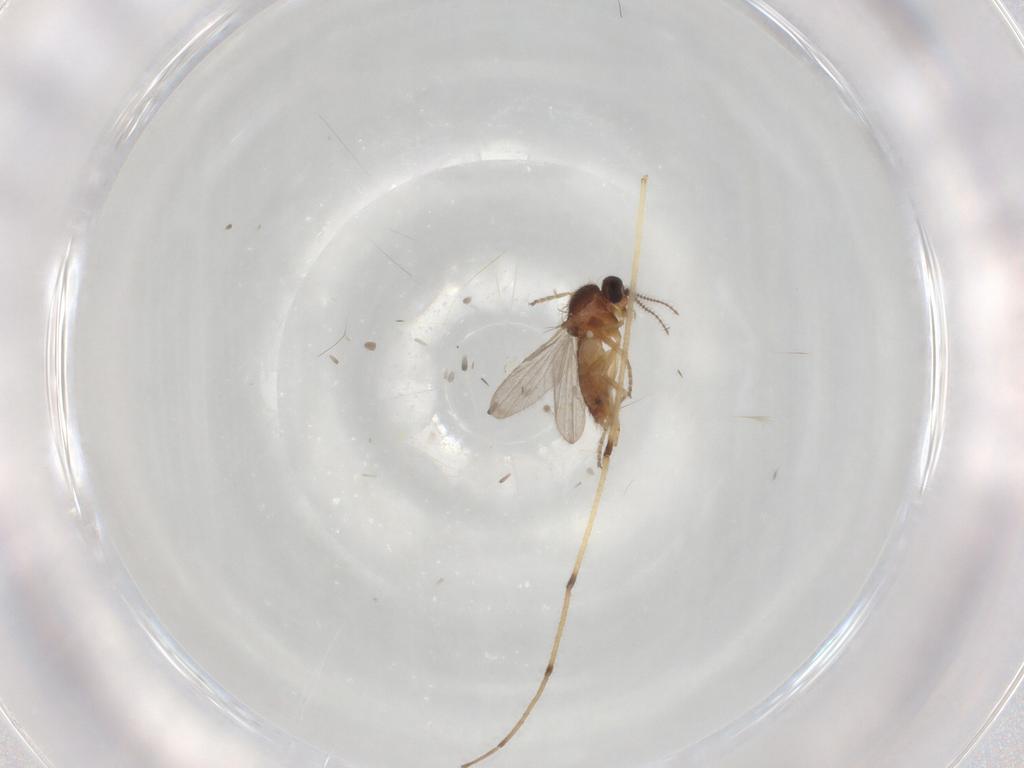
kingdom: Animalia
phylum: Arthropoda
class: Insecta
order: Diptera
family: Ceratopogonidae
